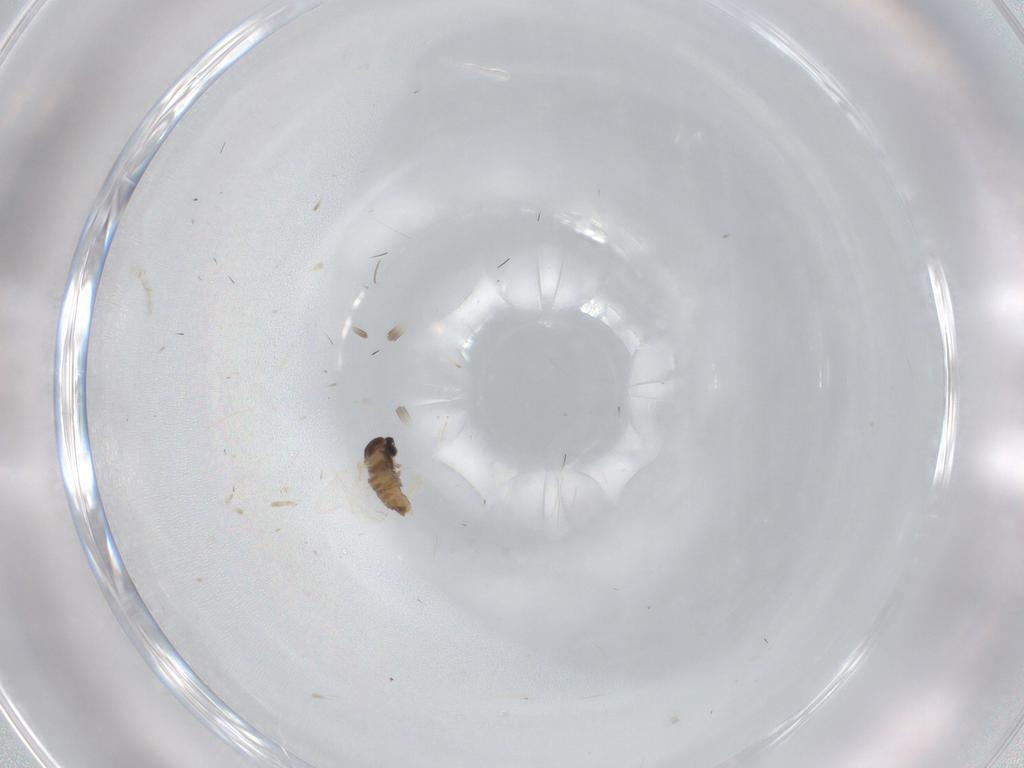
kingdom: Animalia
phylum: Arthropoda
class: Insecta
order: Diptera
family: Cecidomyiidae
